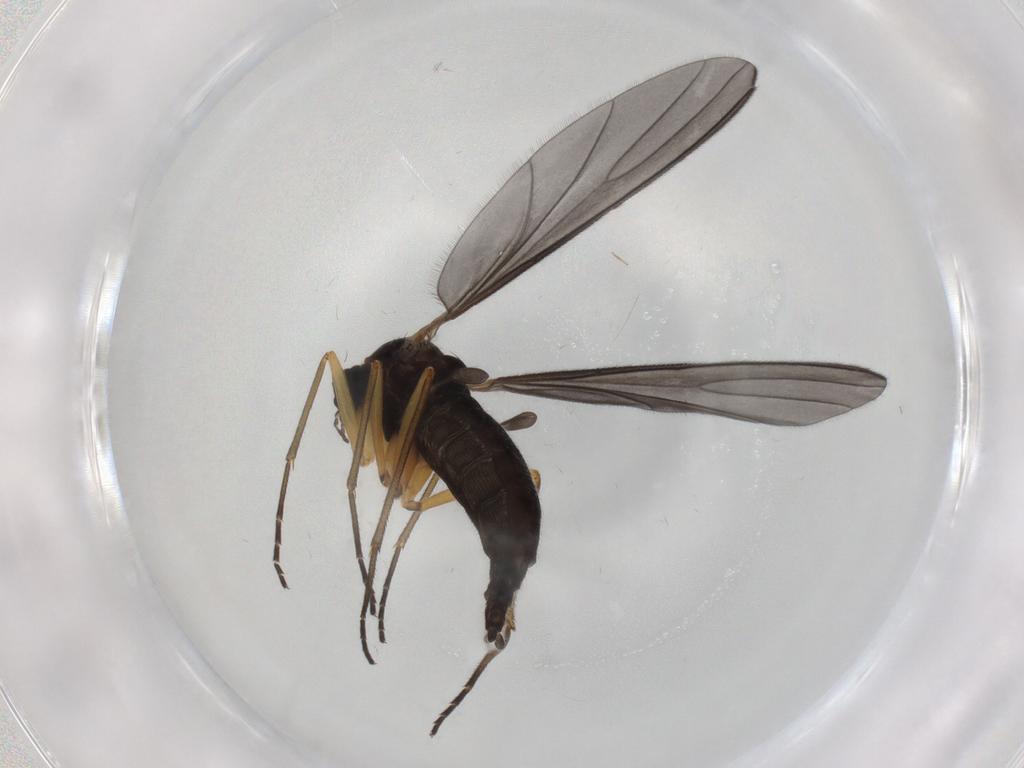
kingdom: Animalia
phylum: Arthropoda
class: Insecta
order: Diptera
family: Sciaridae
